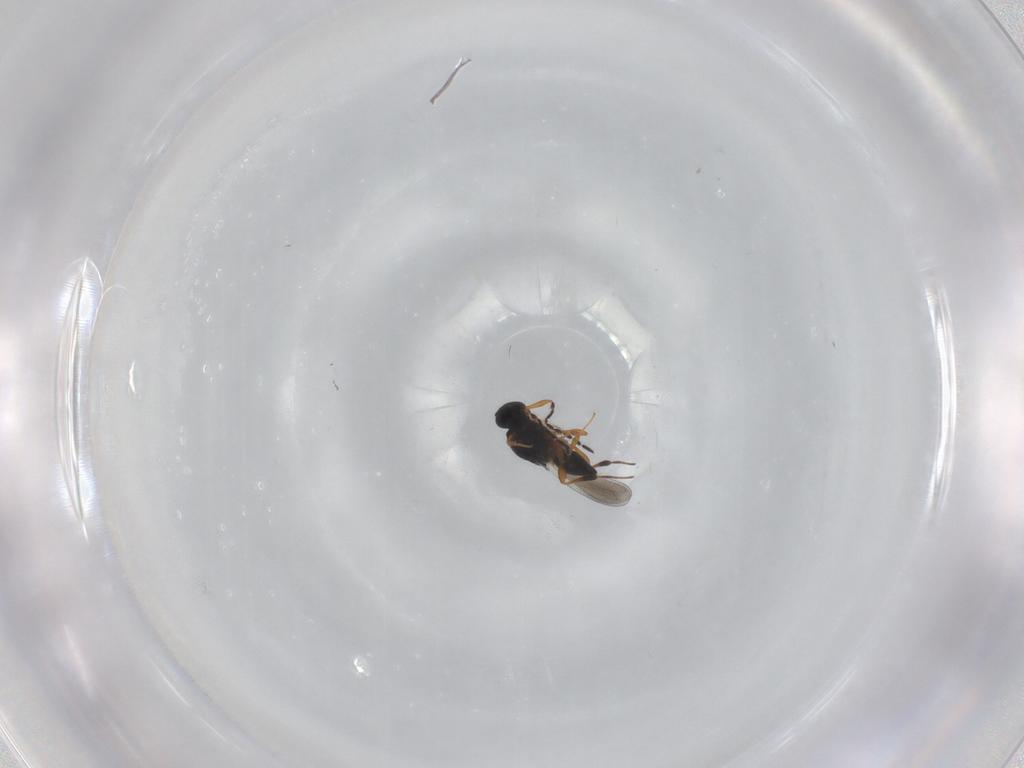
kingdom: Animalia
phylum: Arthropoda
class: Insecta
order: Hymenoptera
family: Platygastridae
